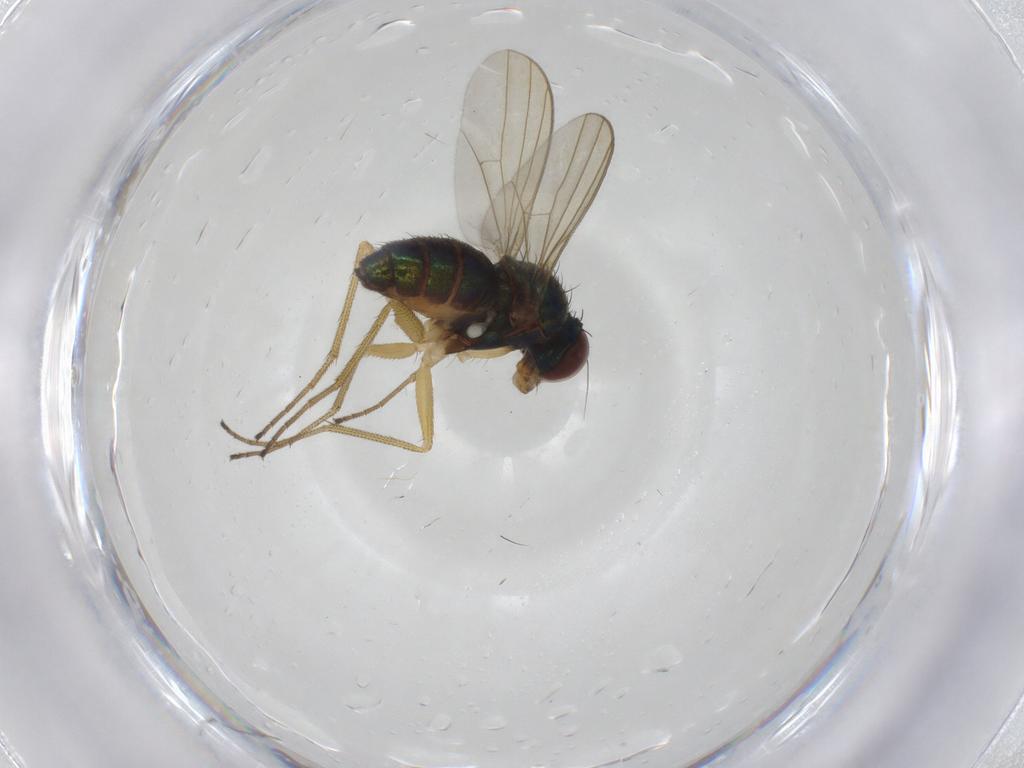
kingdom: Animalia
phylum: Arthropoda
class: Insecta
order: Diptera
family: Dolichopodidae
